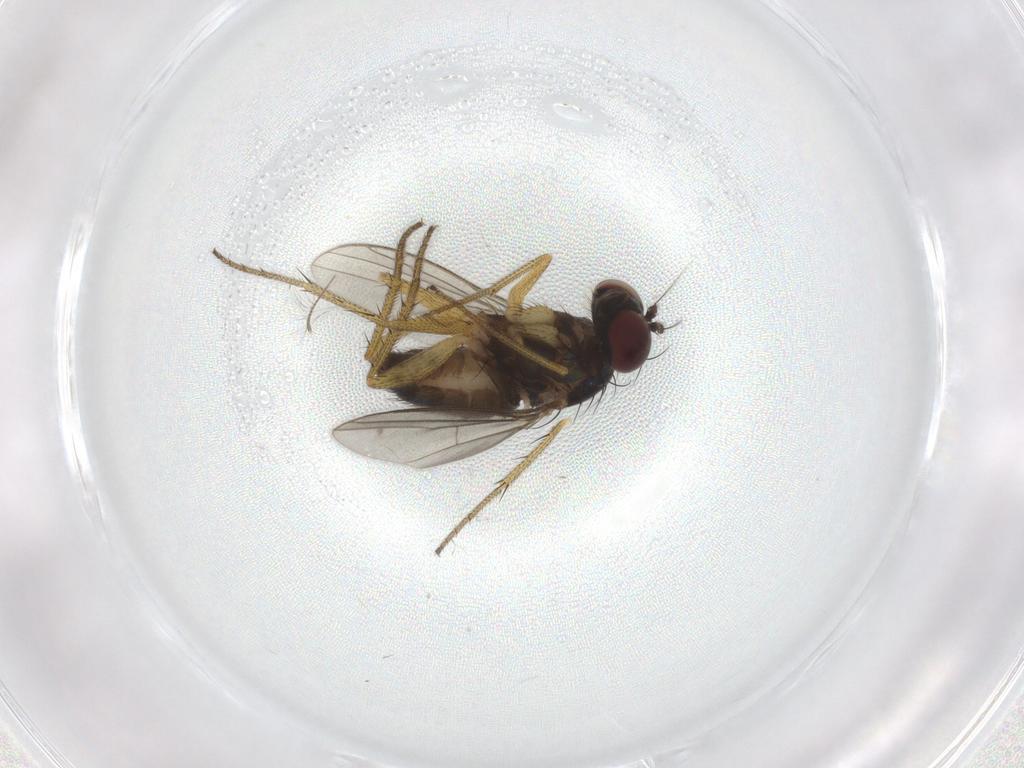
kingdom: Animalia
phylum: Arthropoda
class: Insecta
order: Diptera
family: Dolichopodidae
